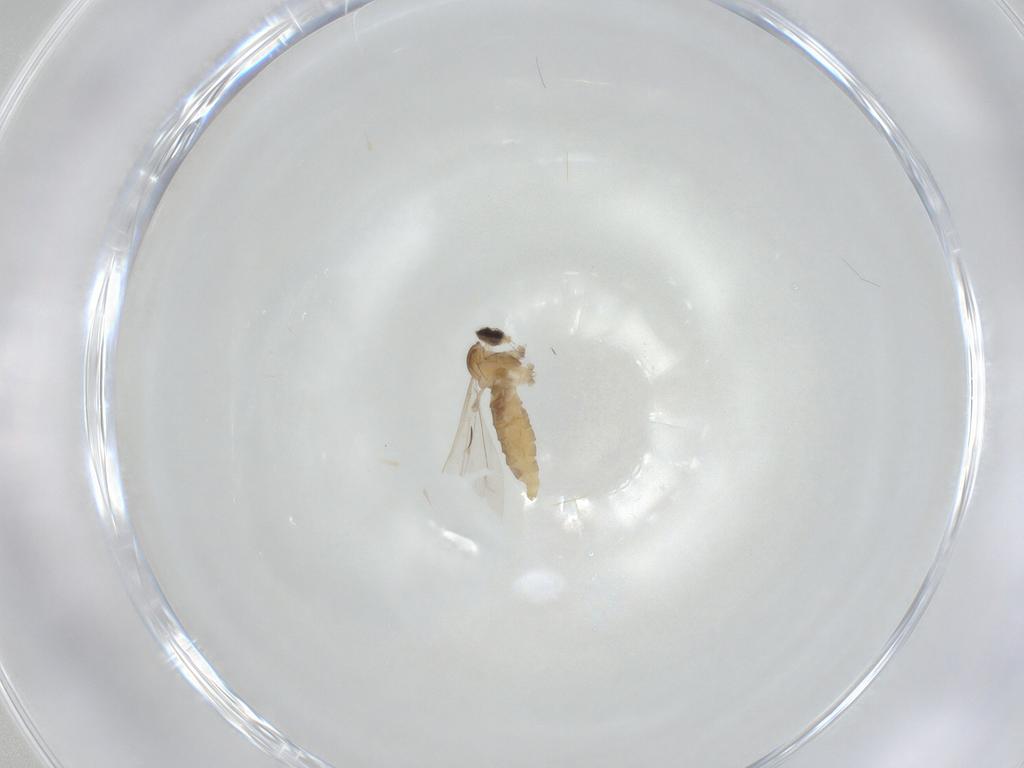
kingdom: Animalia
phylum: Arthropoda
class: Insecta
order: Diptera
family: Cecidomyiidae
